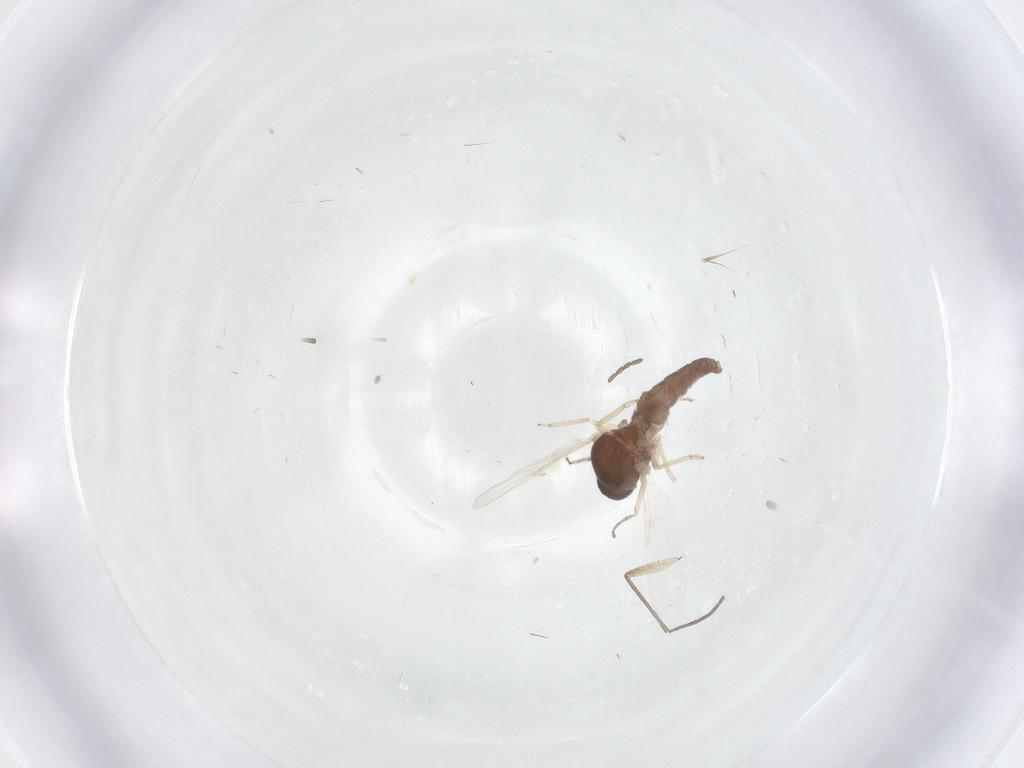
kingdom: Animalia
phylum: Arthropoda
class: Insecta
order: Diptera
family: Ceratopogonidae
